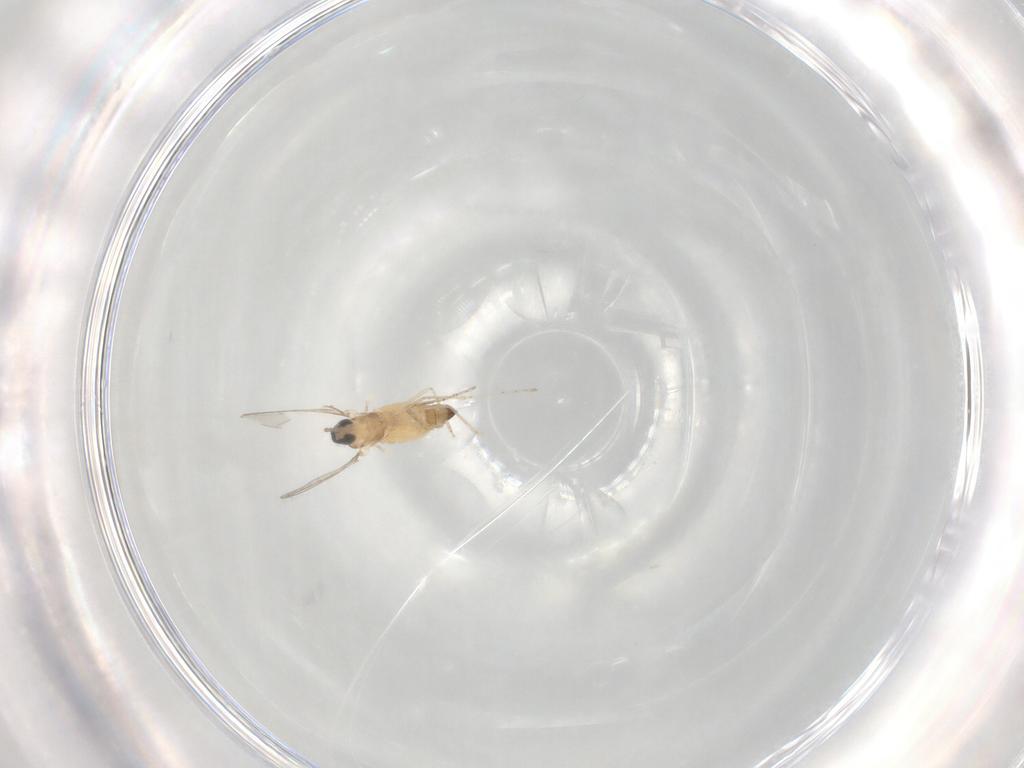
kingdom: Animalia
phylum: Arthropoda
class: Insecta
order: Diptera
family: Cecidomyiidae
